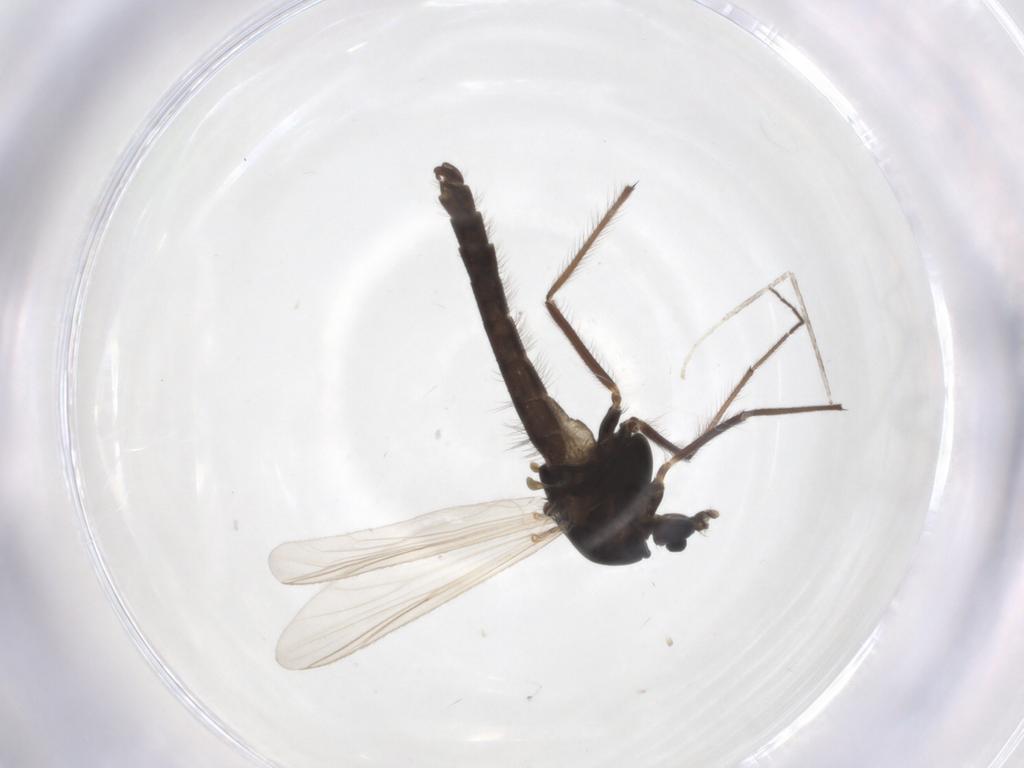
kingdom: Animalia
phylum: Arthropoda
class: Insecta
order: Diptera
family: Chironomidae
